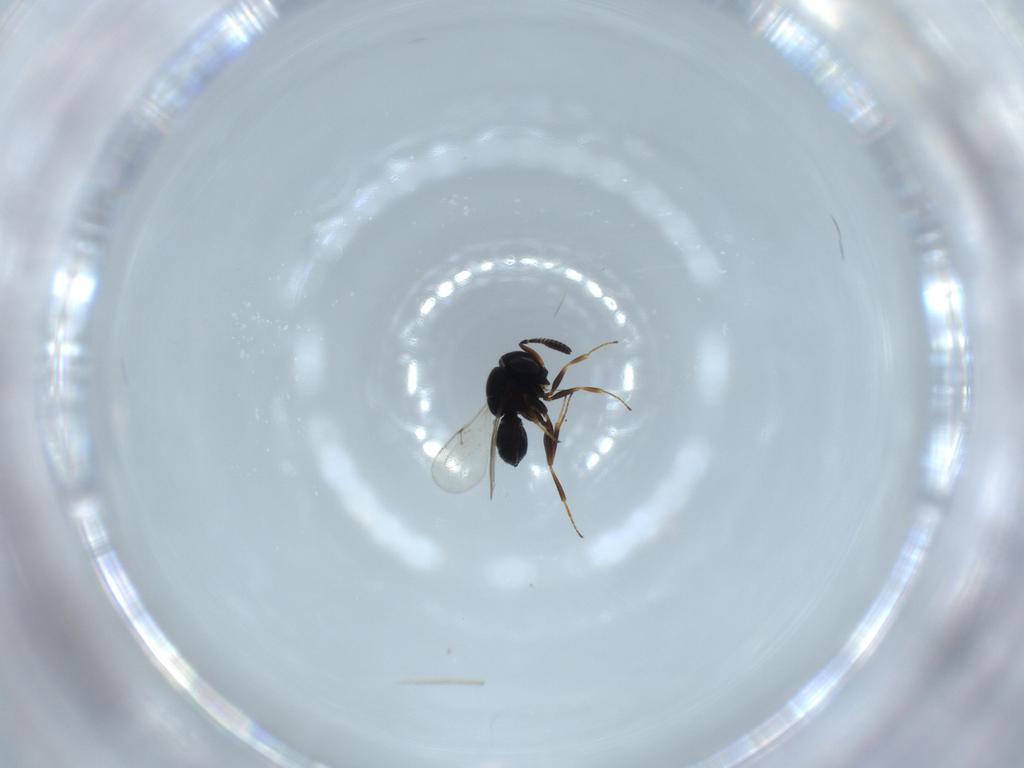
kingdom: Animalia
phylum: Arthropoda
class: Insecta
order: Hymenoptera
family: Scelionidae
